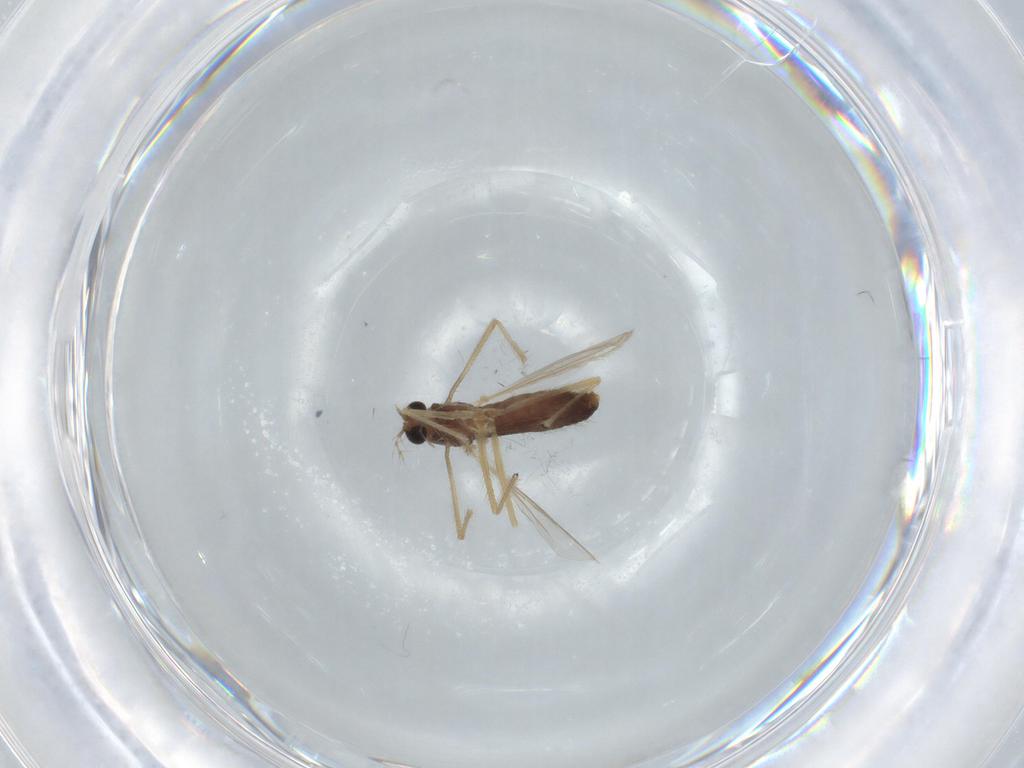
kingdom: Animalia
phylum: Arthropoda
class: Insecta
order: Diptera
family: Chironomidae
